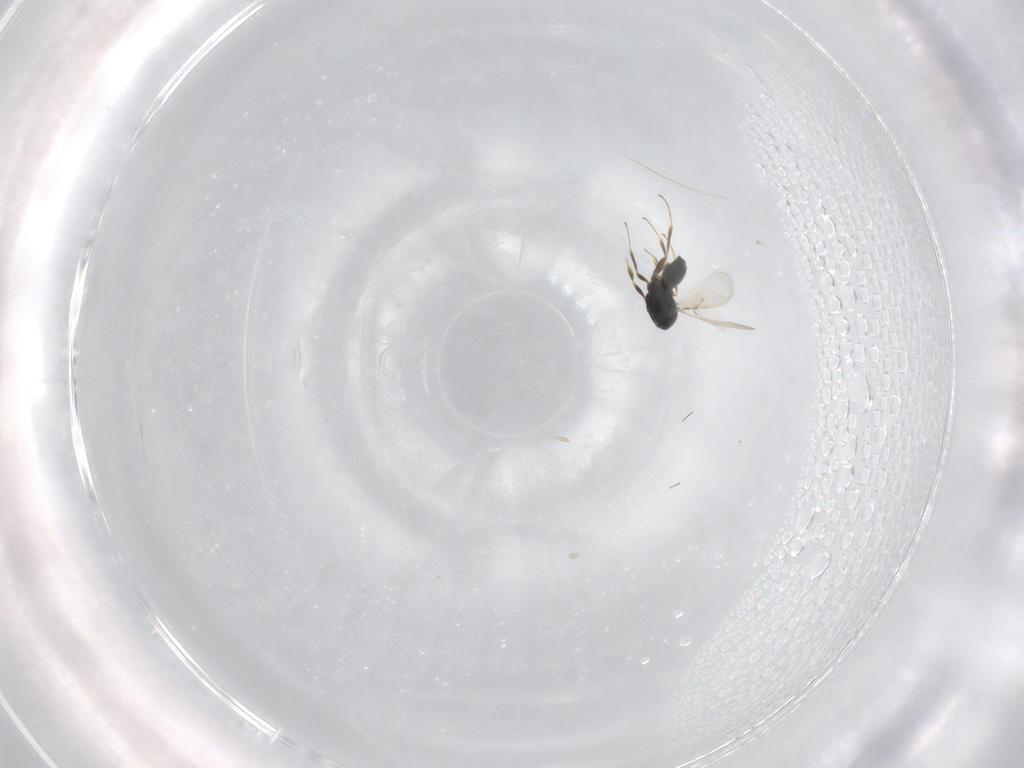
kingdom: Animalia
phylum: Arthropoda
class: Insecta
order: Hymenoptera
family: Scelionidae
